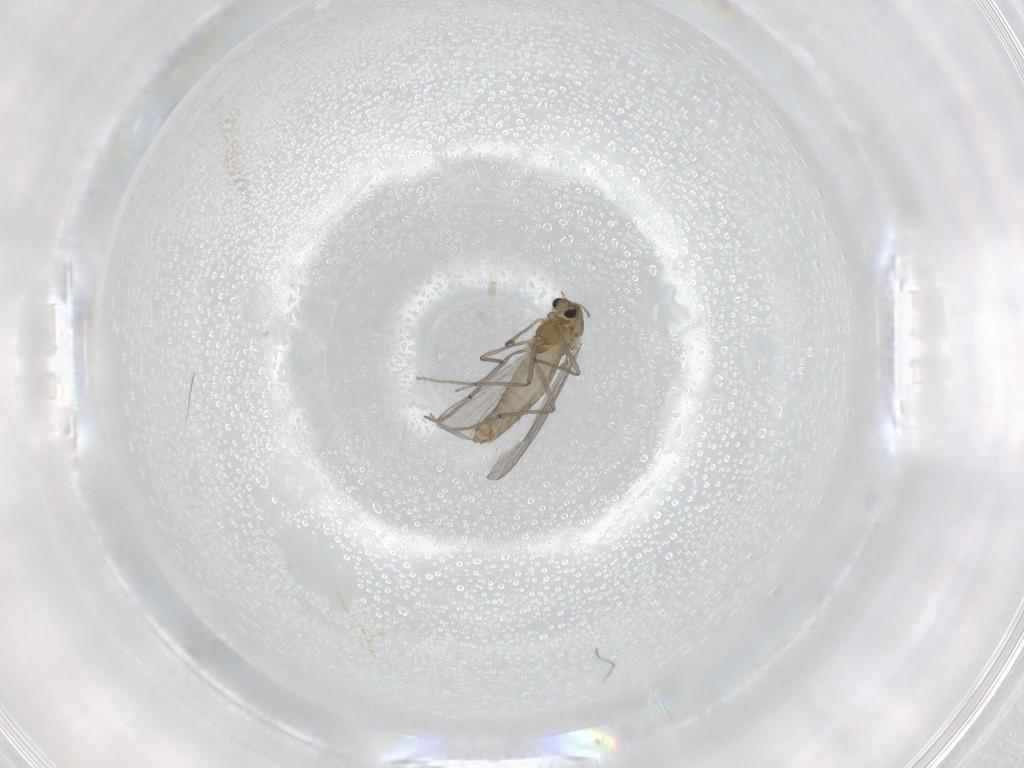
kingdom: Animalia
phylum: Arthropoda
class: Insecta
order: Diptera
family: Chironomidae
